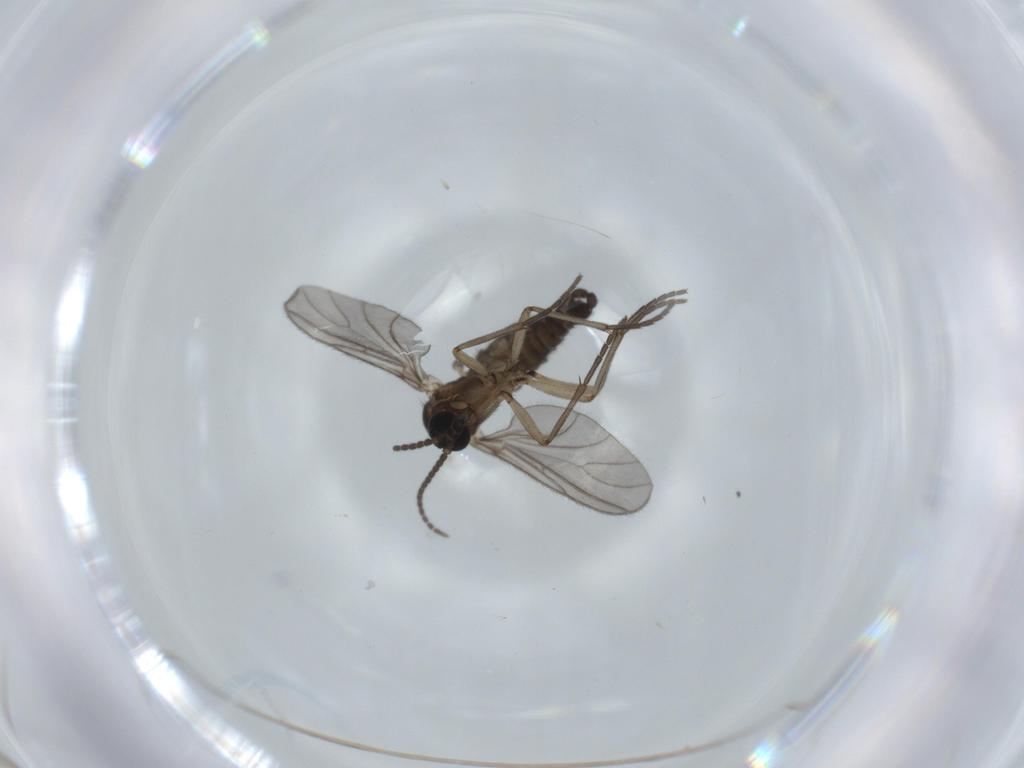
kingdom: Animalia
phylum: Arthropoda
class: Insecta
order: Diptera
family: Sciaridae
